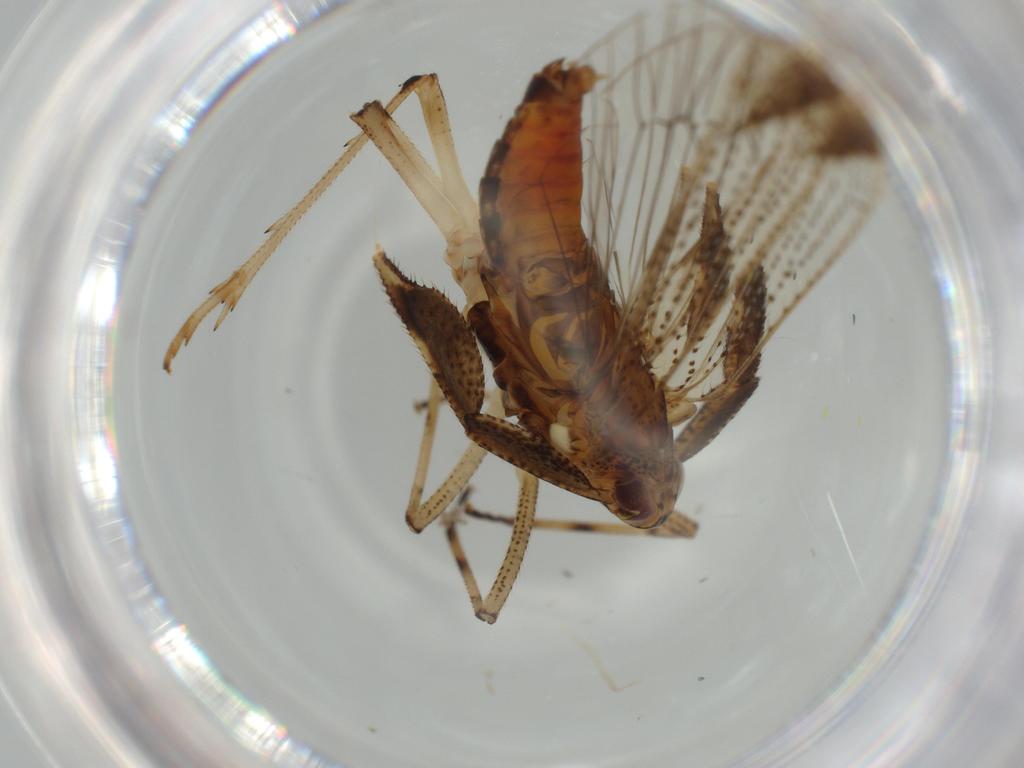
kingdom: Animalia
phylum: Arthropoda
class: Insecta
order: Hemiptera
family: Delphacidae
